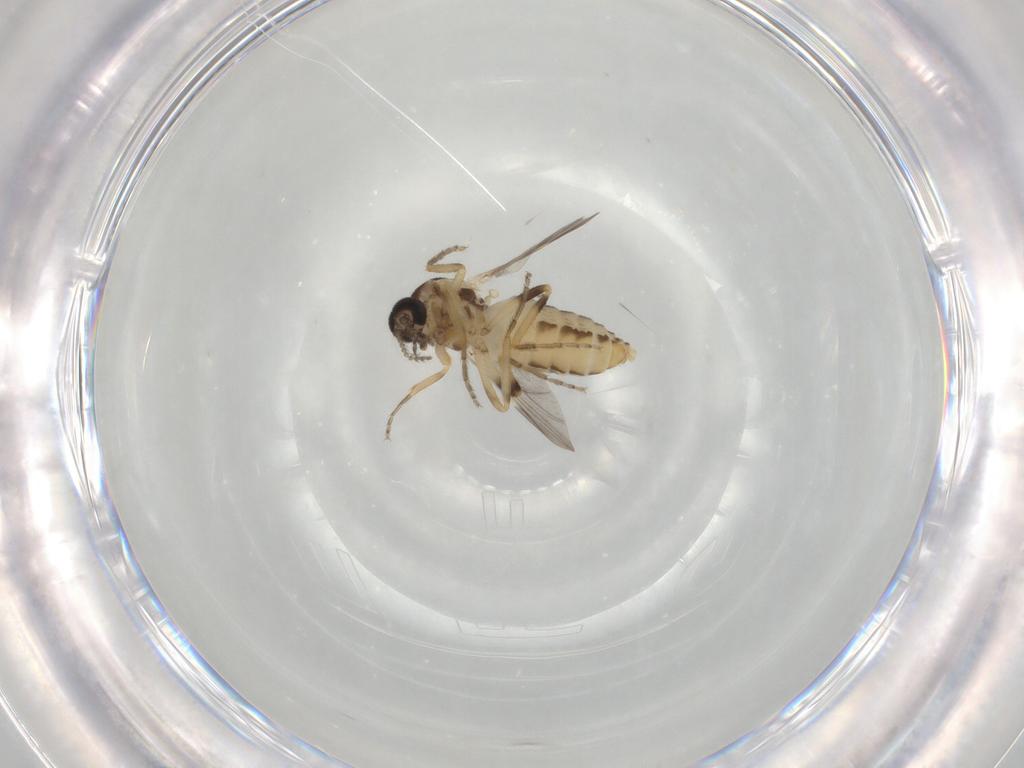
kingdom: Animalia
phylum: Arthropoda
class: Insecta
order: Diptera
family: Ceratopogonidae
